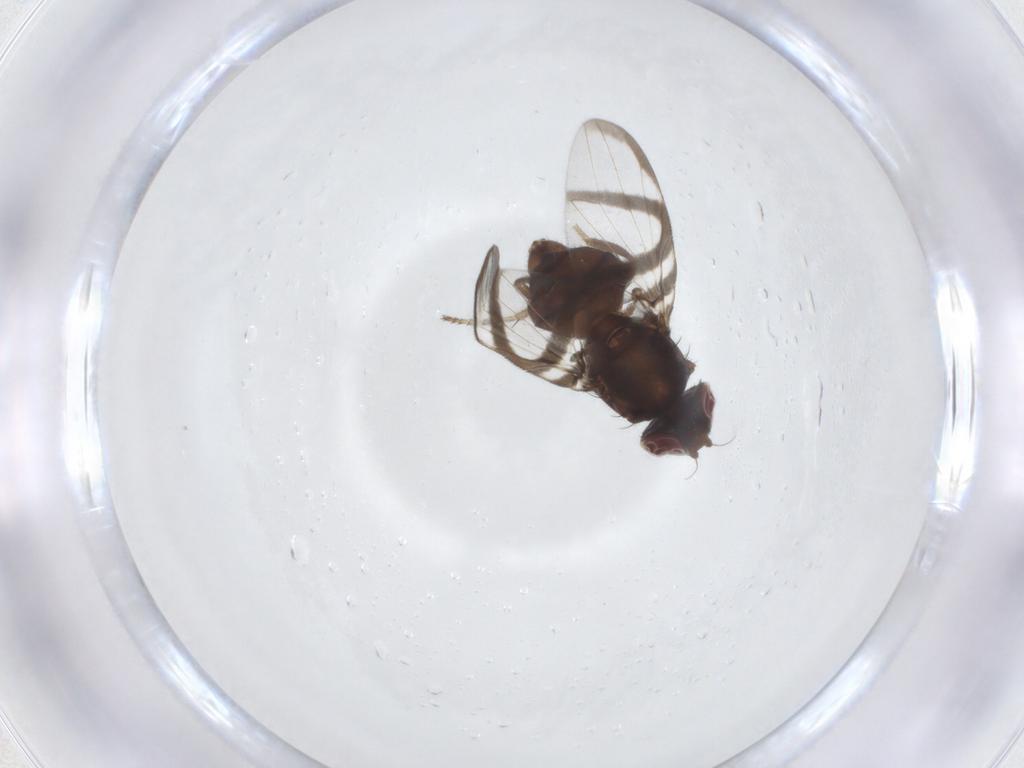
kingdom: Animalia
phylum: Arthropoda
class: Insecta
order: Diptera
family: Ulidiidae
